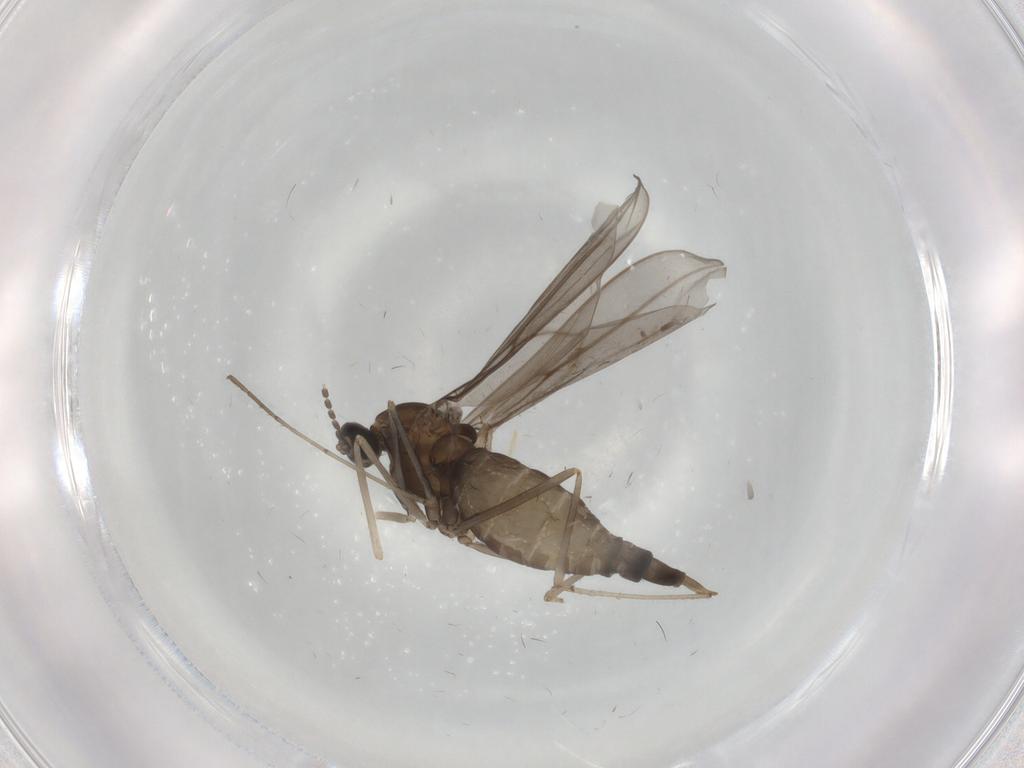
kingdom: Animalia
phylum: Arthropoda
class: Insecta
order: Diptera
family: Cecidomyiidae
